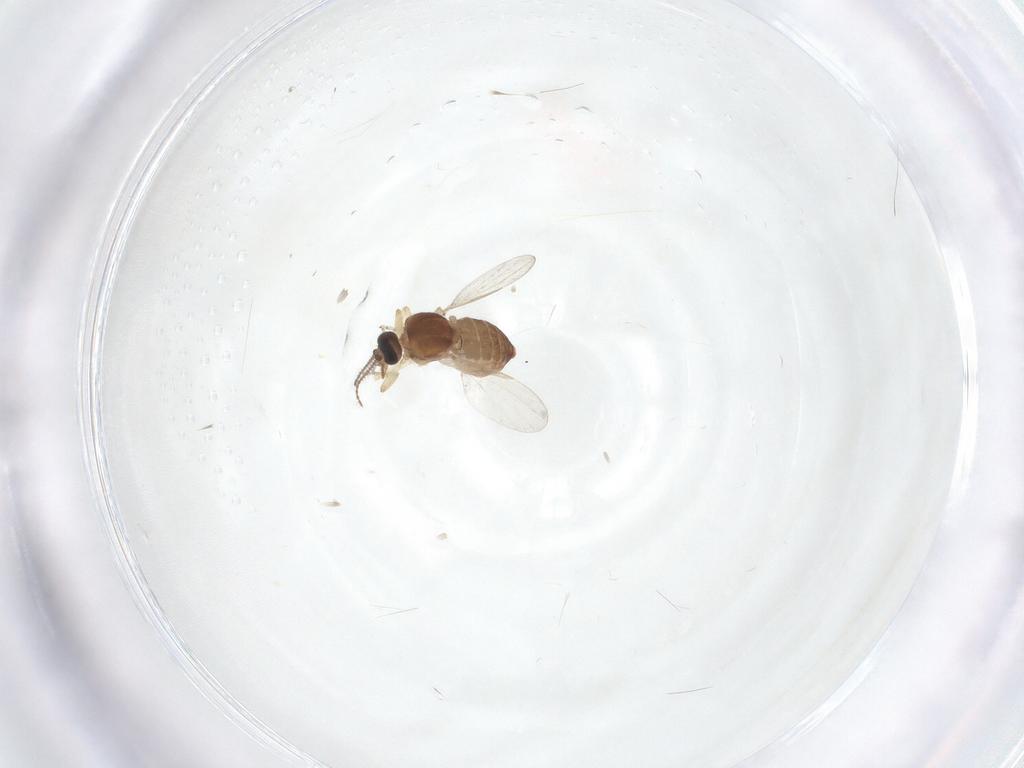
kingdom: Animalia
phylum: Arthropoda
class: Insecta
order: Diptera
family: Ceratopogonidae
